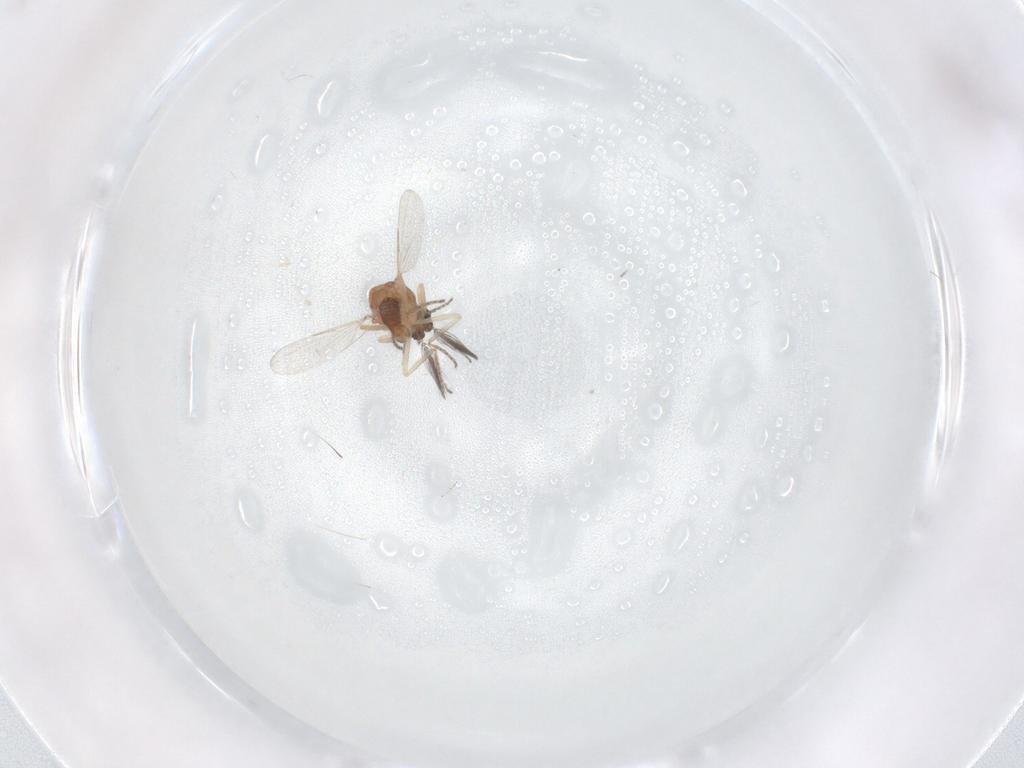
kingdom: Animalia
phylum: Arthropoda
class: Insecta
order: Diptera
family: Ceratopogonidae
